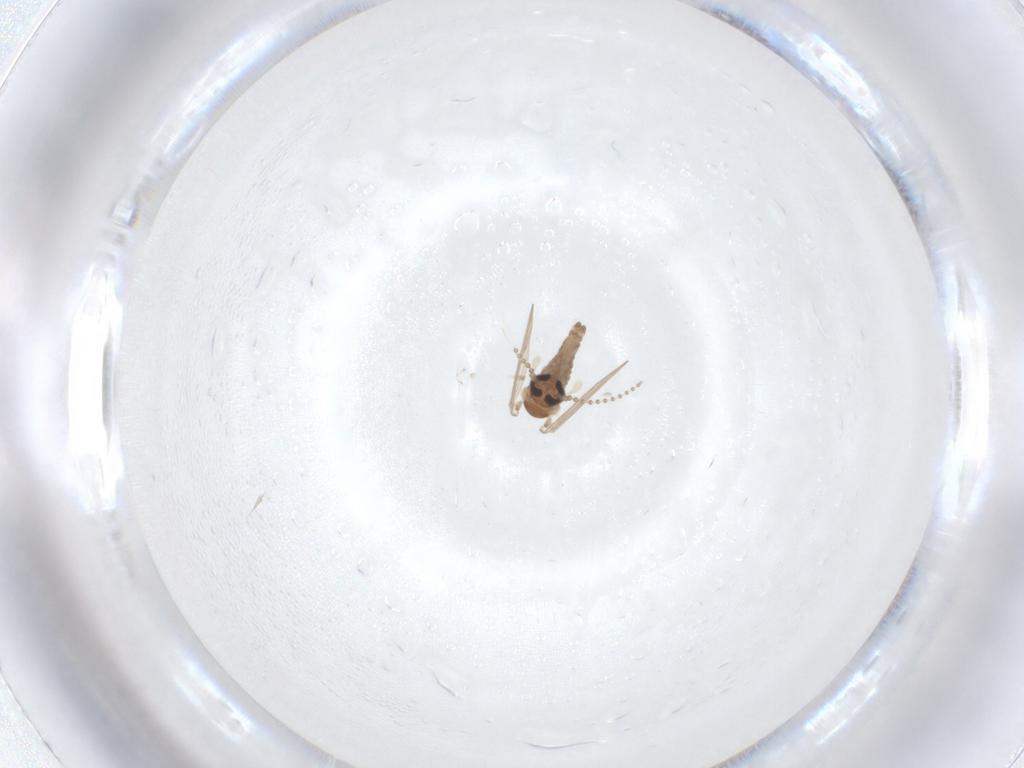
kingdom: Animalia
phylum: Arthropoda
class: Insecta
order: Diptera
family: Psychodidae
